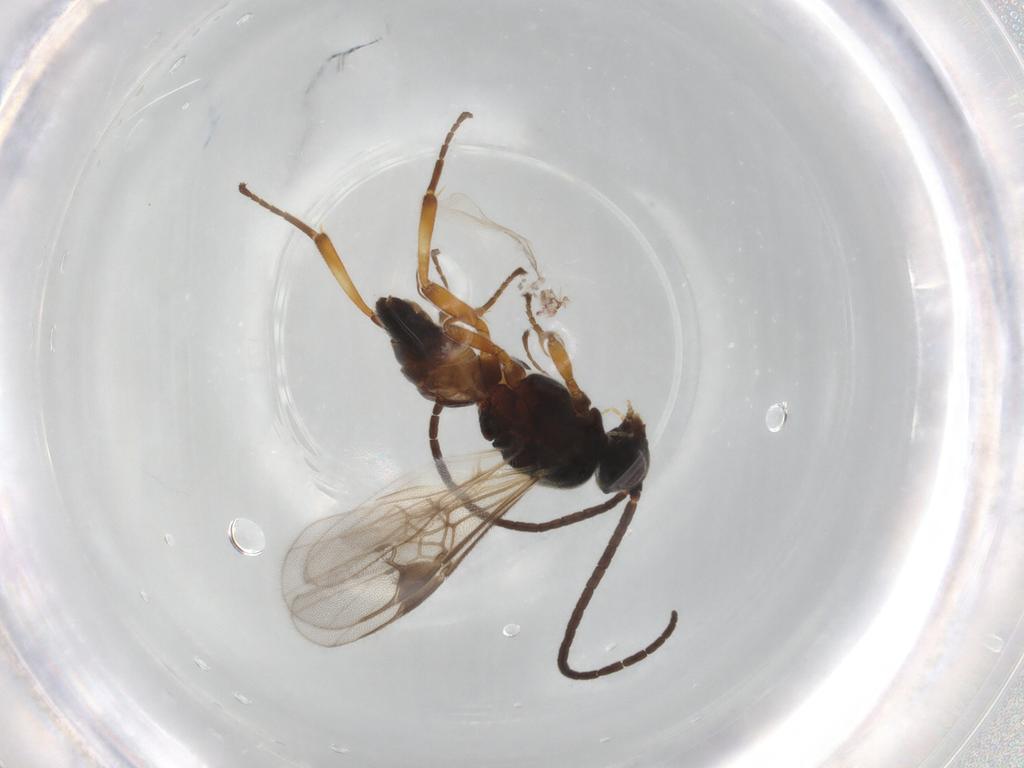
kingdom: Animalia
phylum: Arthropoda
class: Insecta
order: Hymenoptera
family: Braconidae
